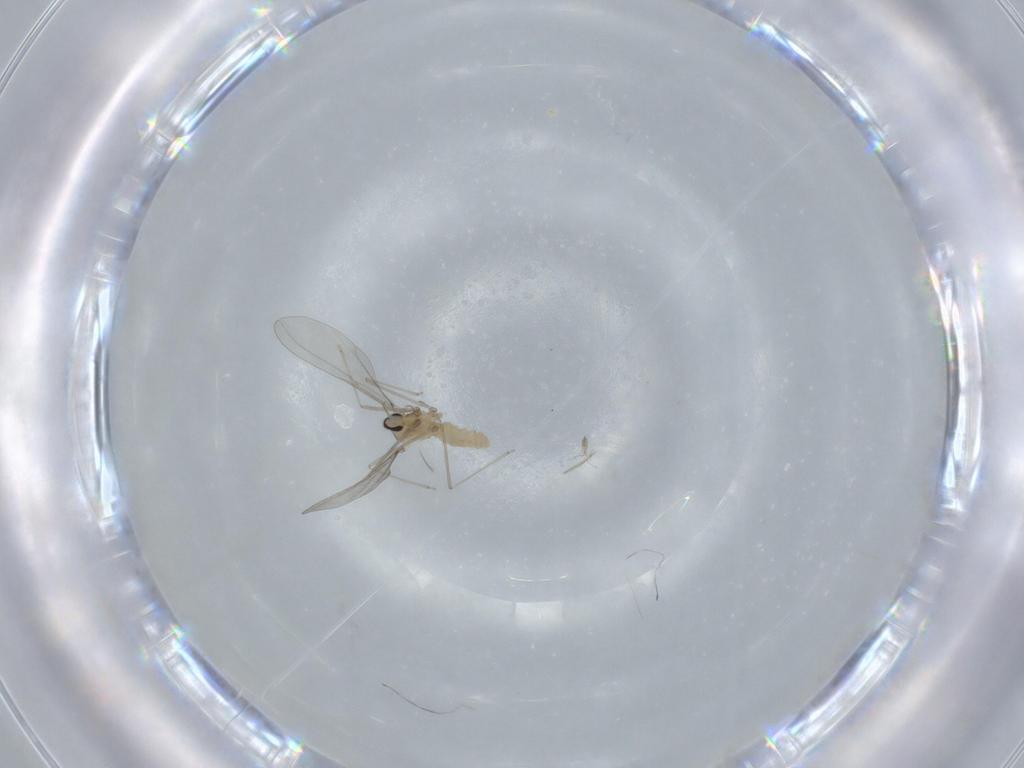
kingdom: Animalia
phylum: Arthropoda
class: Insecta
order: Diptera
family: Cecidomyiidae
